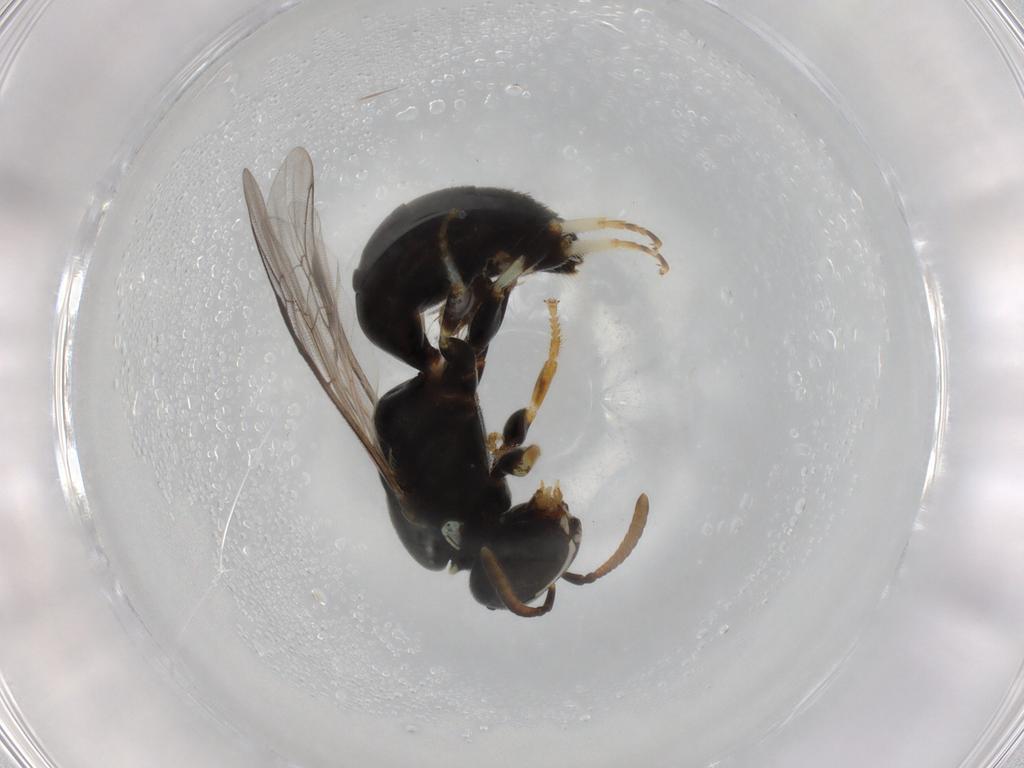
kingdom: Animalia
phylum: Arthropoda
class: Insecta
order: Hymenoptera
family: Colletidae
